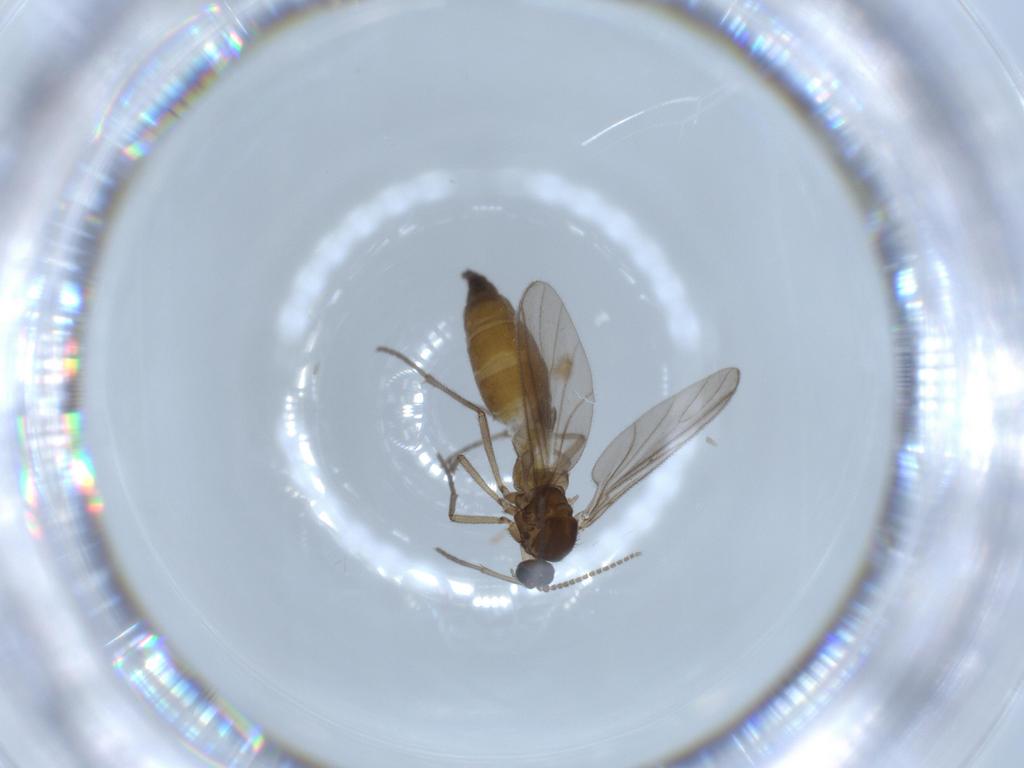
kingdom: Animalia
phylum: Arthropoda
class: Insecta
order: Diptera
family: Sciaridae
